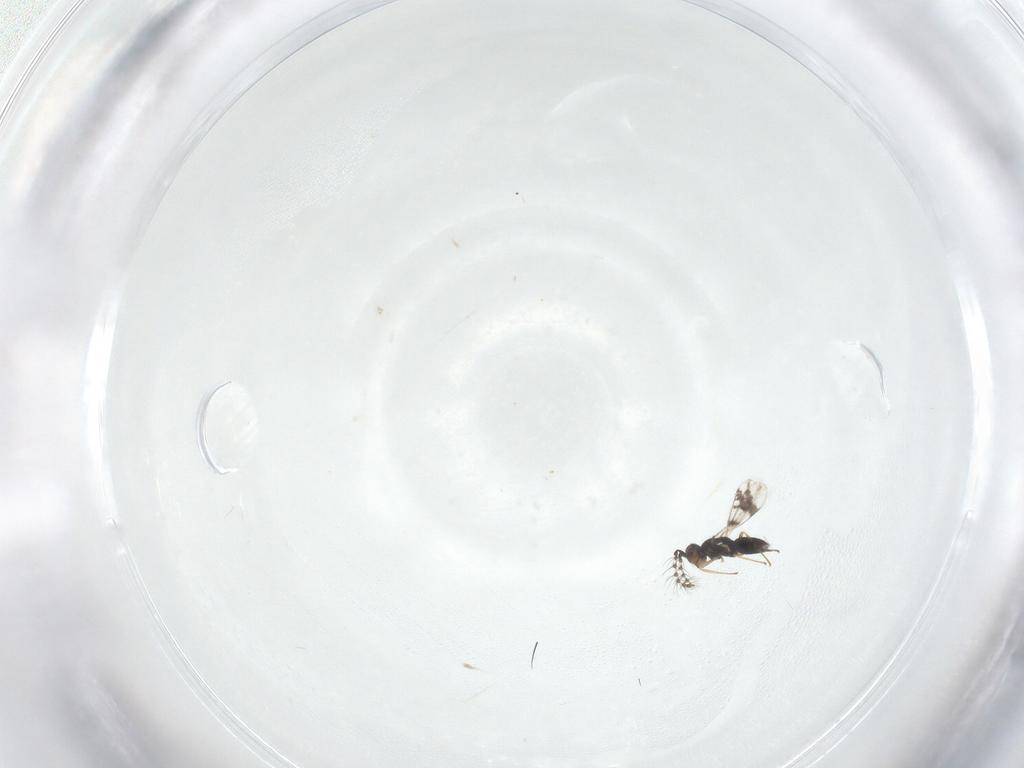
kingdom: Animalia
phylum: Arthropoda
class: Insecta
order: Hymenoptera
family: Eulophidae
